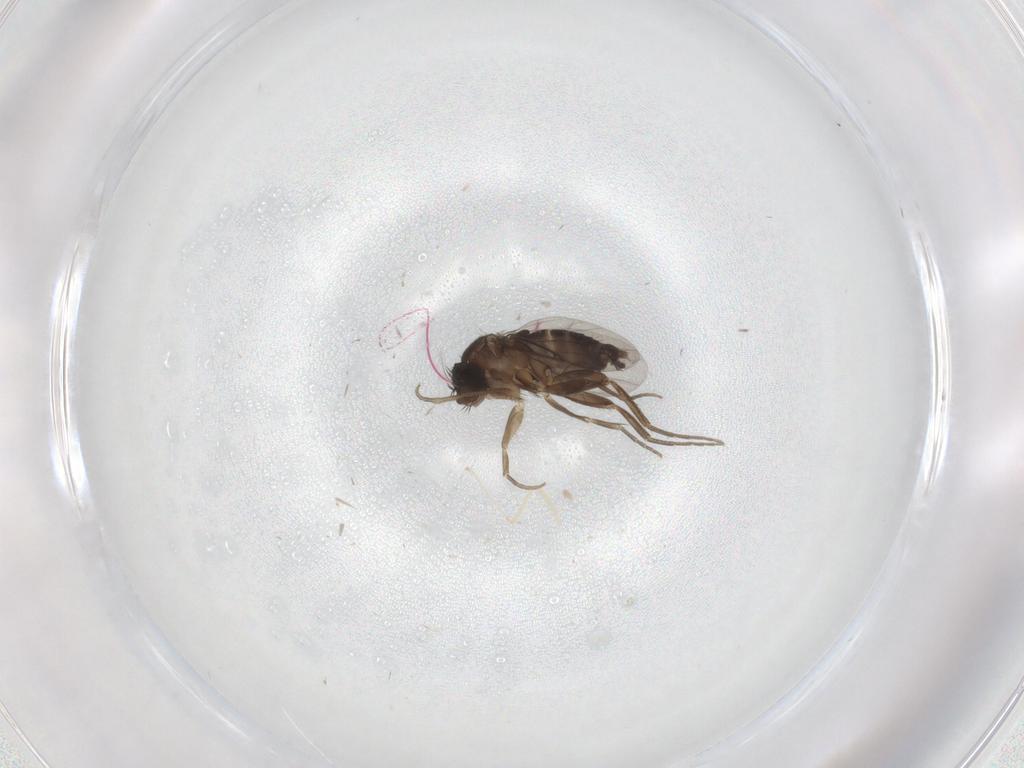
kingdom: Animalia
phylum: Arthropoda
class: Insecta
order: Diptera
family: Phoridae
